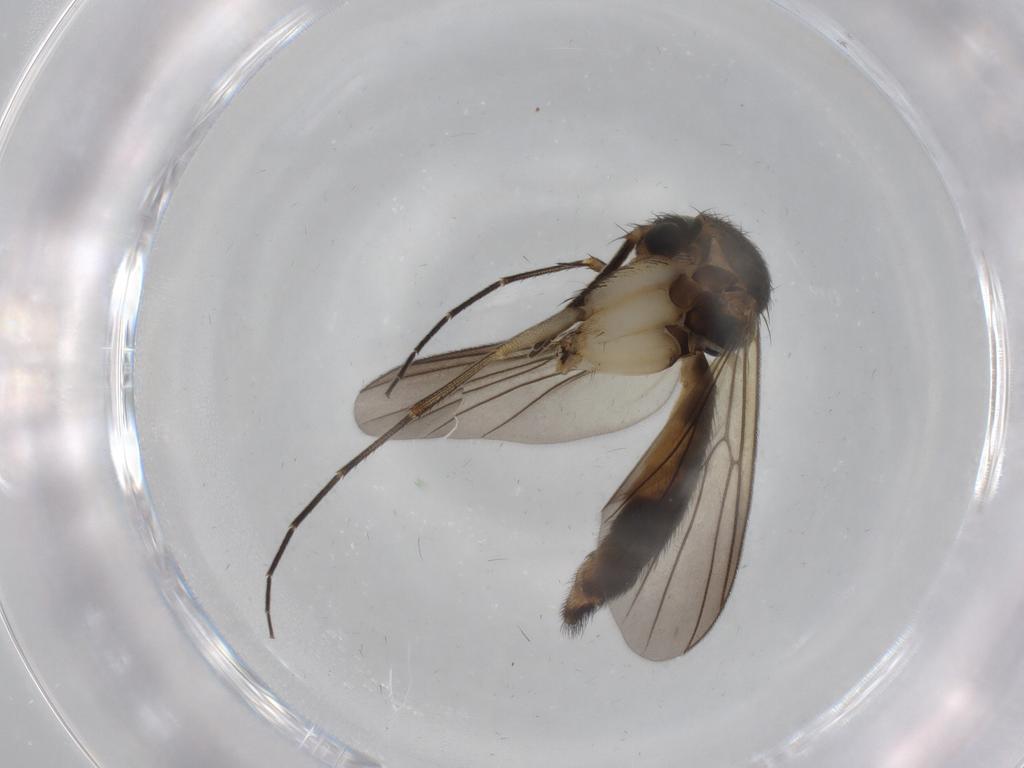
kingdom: Animalia
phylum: Arthropoda
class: Insecta
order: Diptera
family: Mycetophilidae
